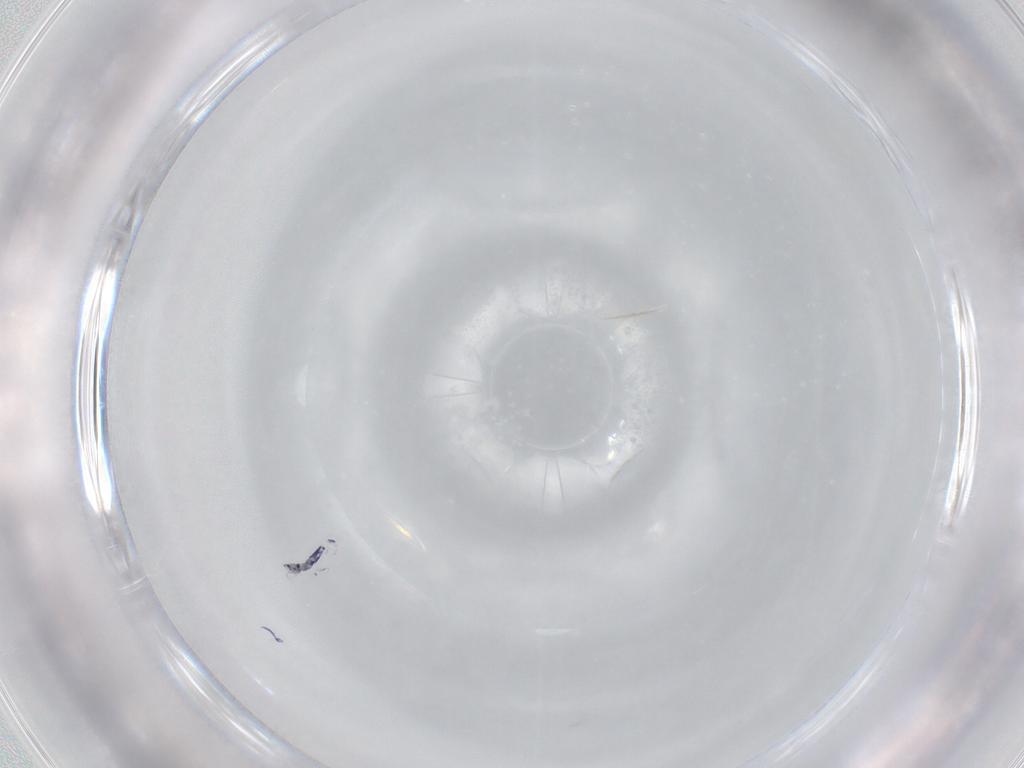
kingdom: Animalia
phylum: Arthropoda
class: Collembola
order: Entomobryomorpha
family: Entomobryidae
